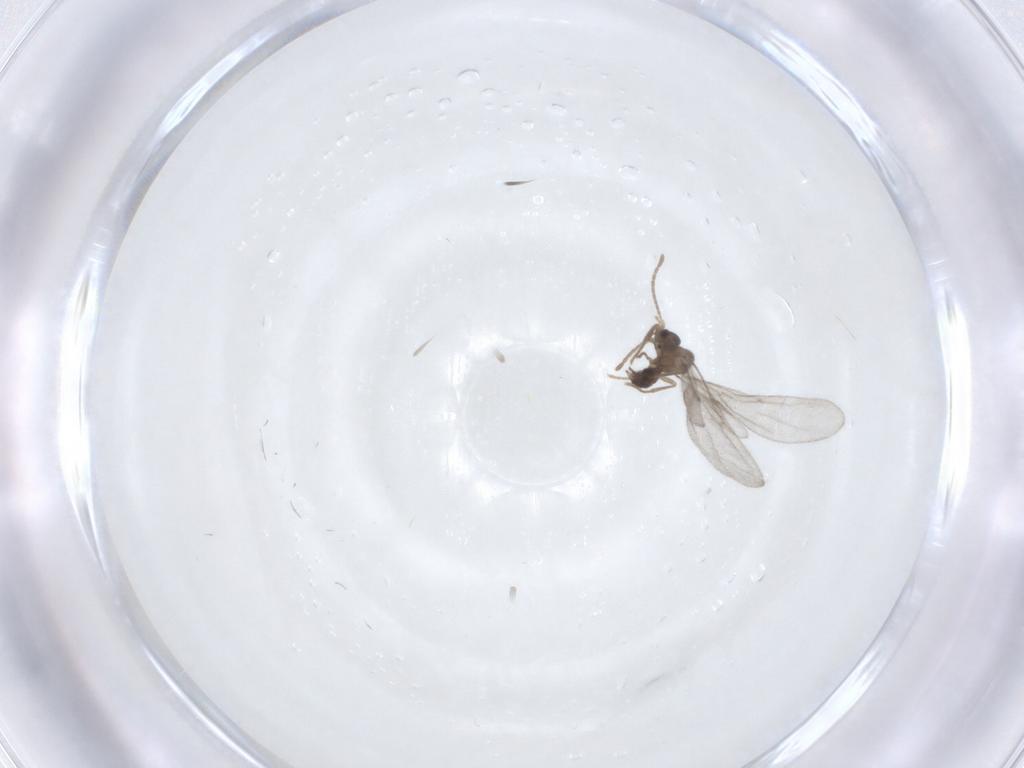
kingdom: Animalia
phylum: Arthropoda
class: Insecta
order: Hymenoptera
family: Formicidae
